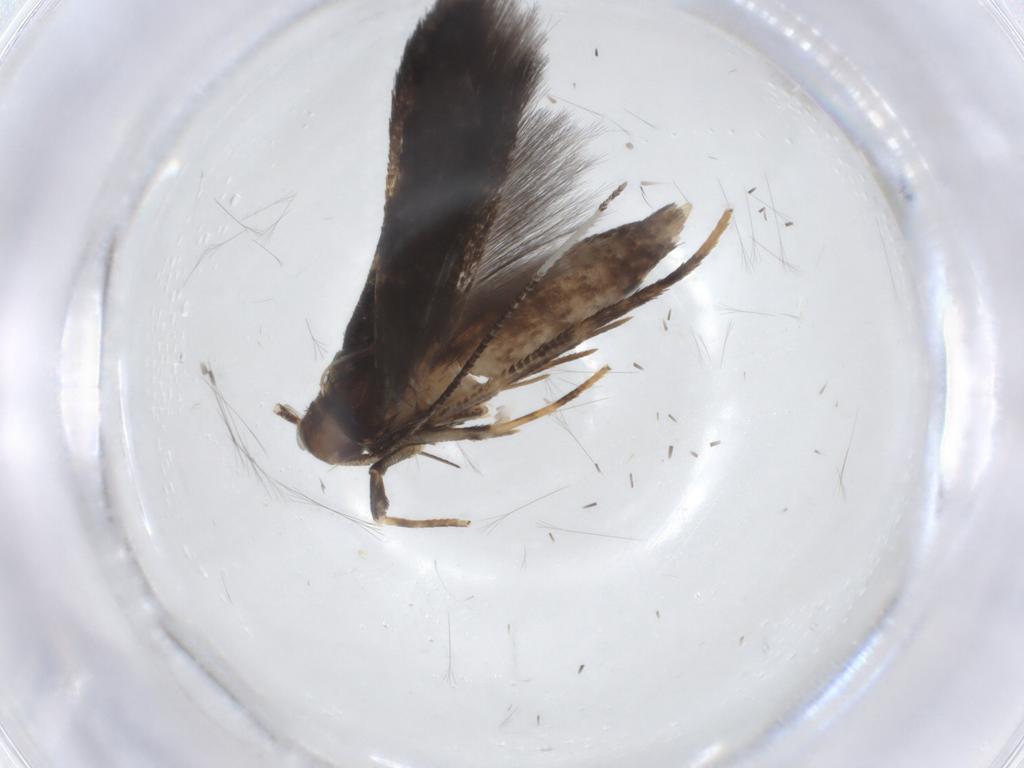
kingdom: Animalia
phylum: Arthropoda
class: Insecta
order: Lepidoptera
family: Cosmopterigidae
